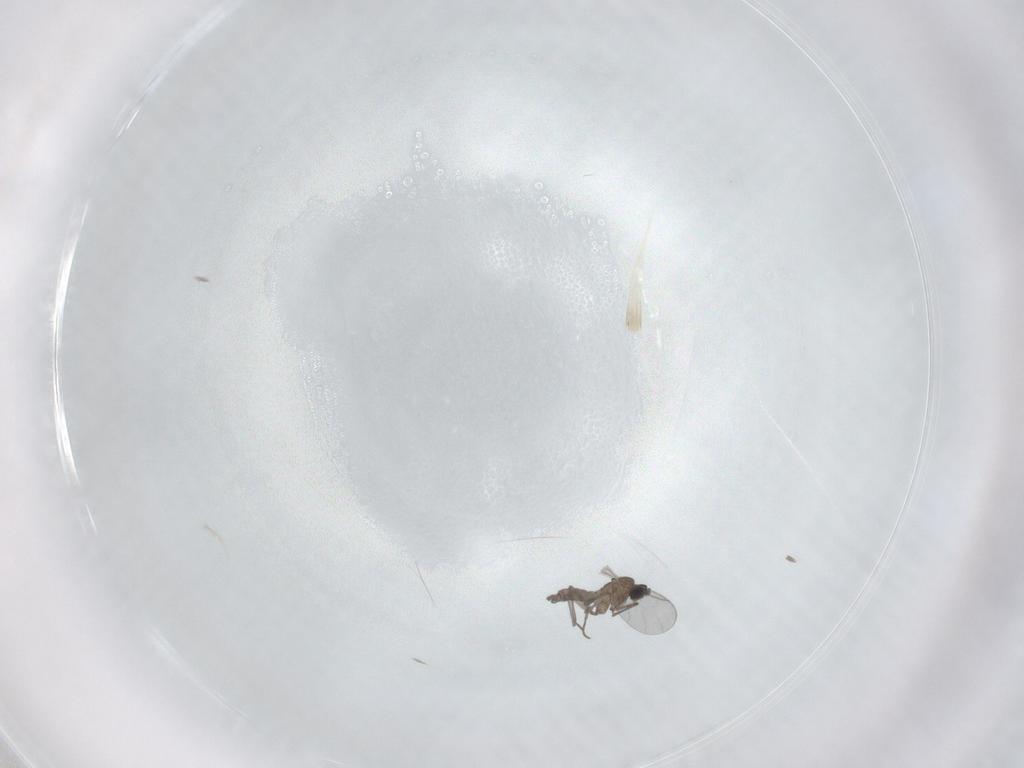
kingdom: Animalia
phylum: Arthropoda
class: Insecta
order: Diptera
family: Sciaridae
